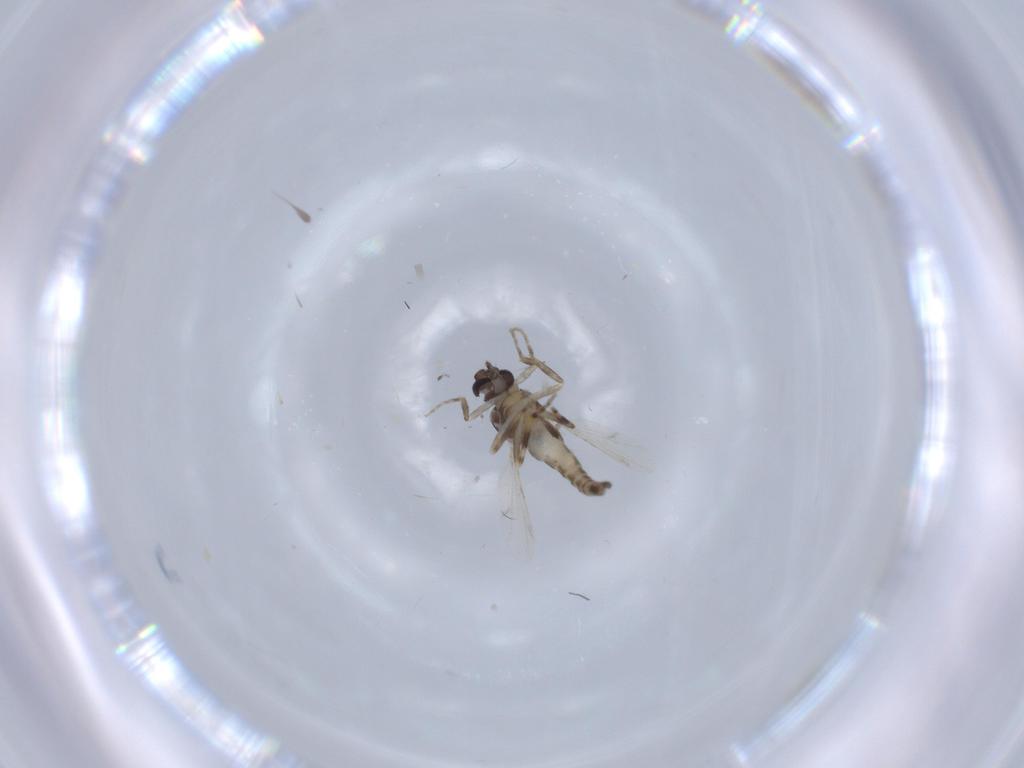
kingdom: Animalia
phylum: Arthropoda
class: Insecta
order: Diptera
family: Ceratopogonidae
